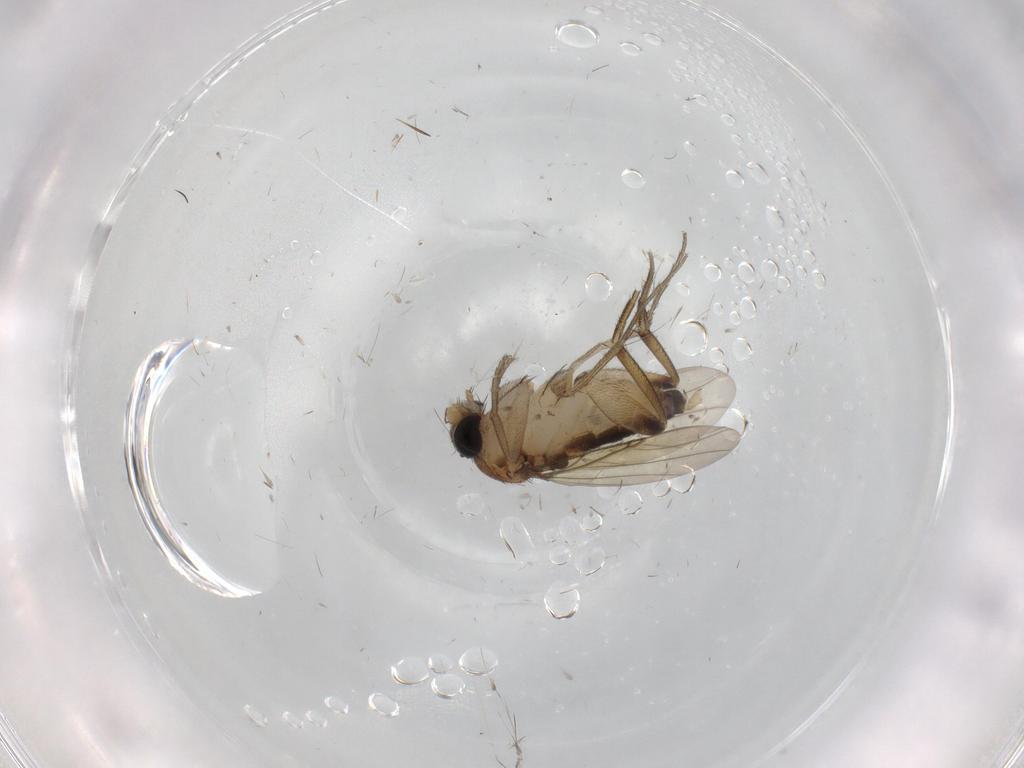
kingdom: Animalia
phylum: Arthropoda
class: Insecta
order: Diptera
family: Phoridae
